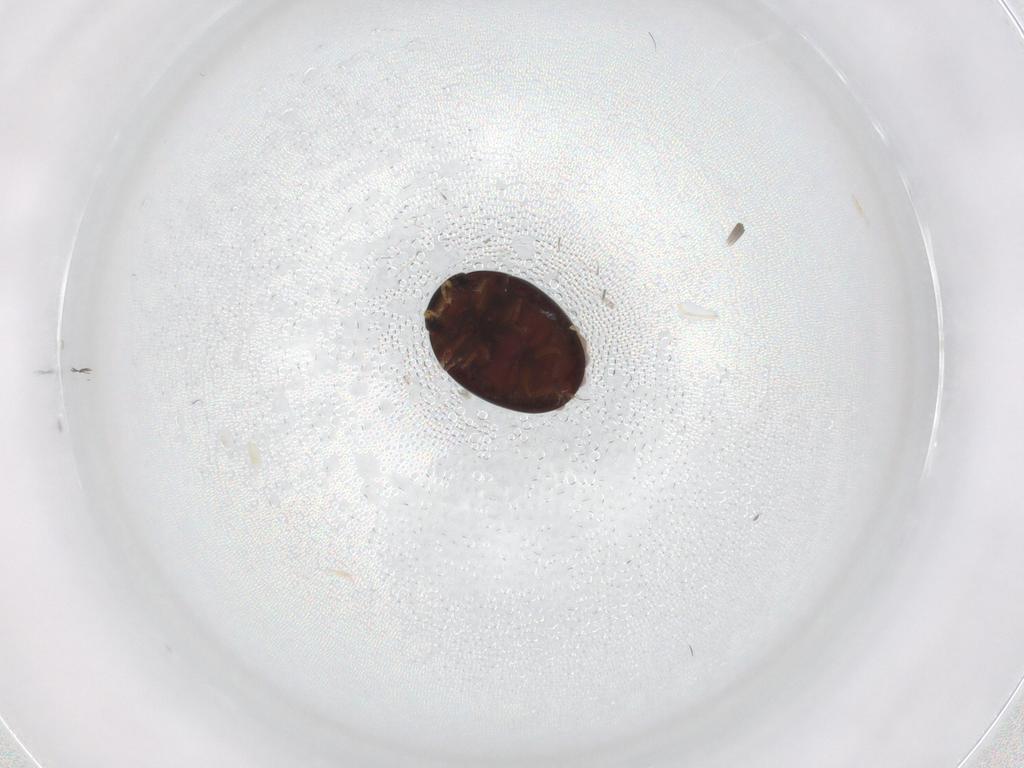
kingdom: Animalia
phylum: Arthropoda
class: Insecta
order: Coleoptera
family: Hydrophilidae
